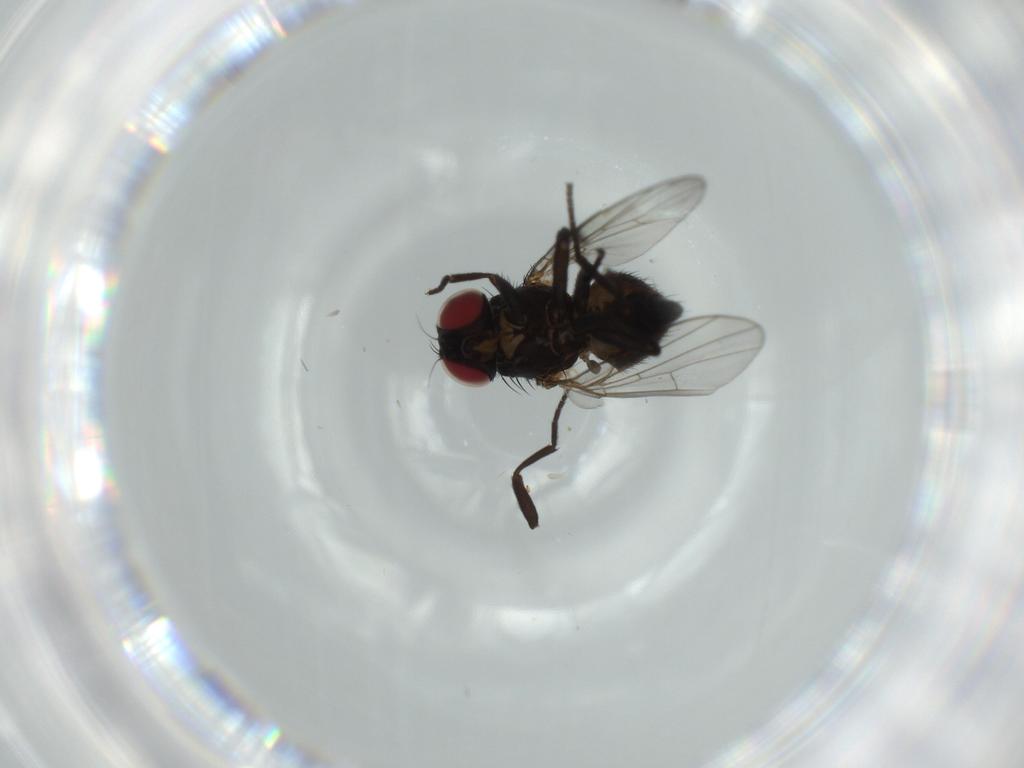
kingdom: Animalia
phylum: Arthropoda
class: Insecta
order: Diptera
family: Agromyzidae
